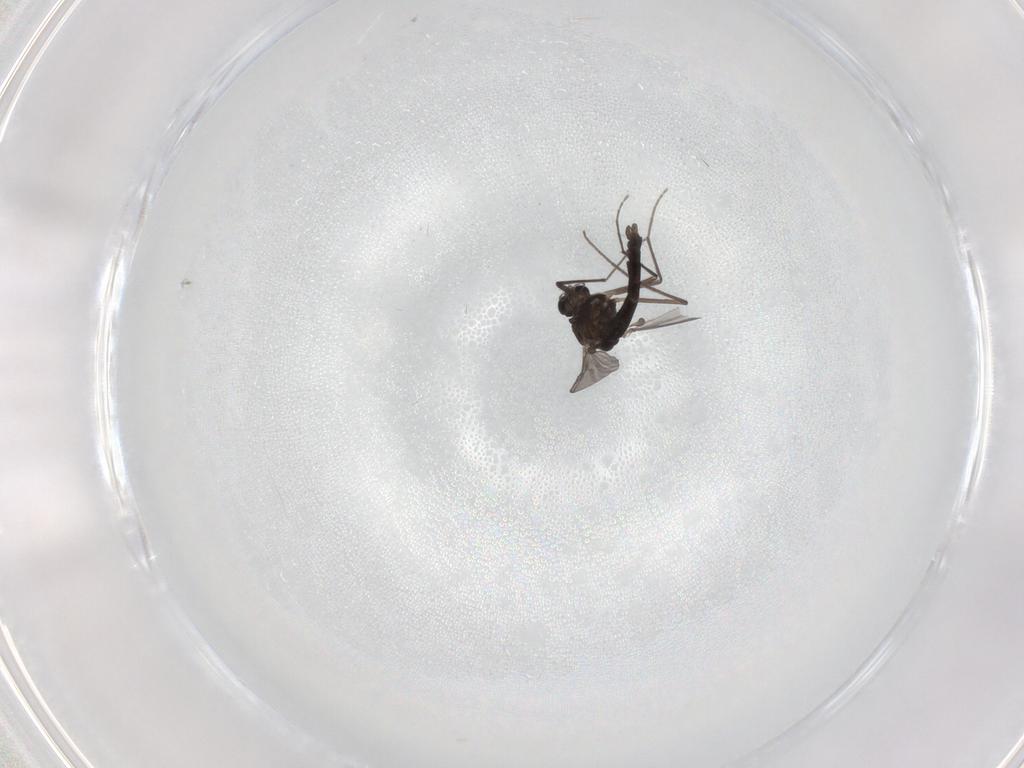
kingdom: Animalia
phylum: Arthropoda
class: Insecta
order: Diptera
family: Chironomidae
